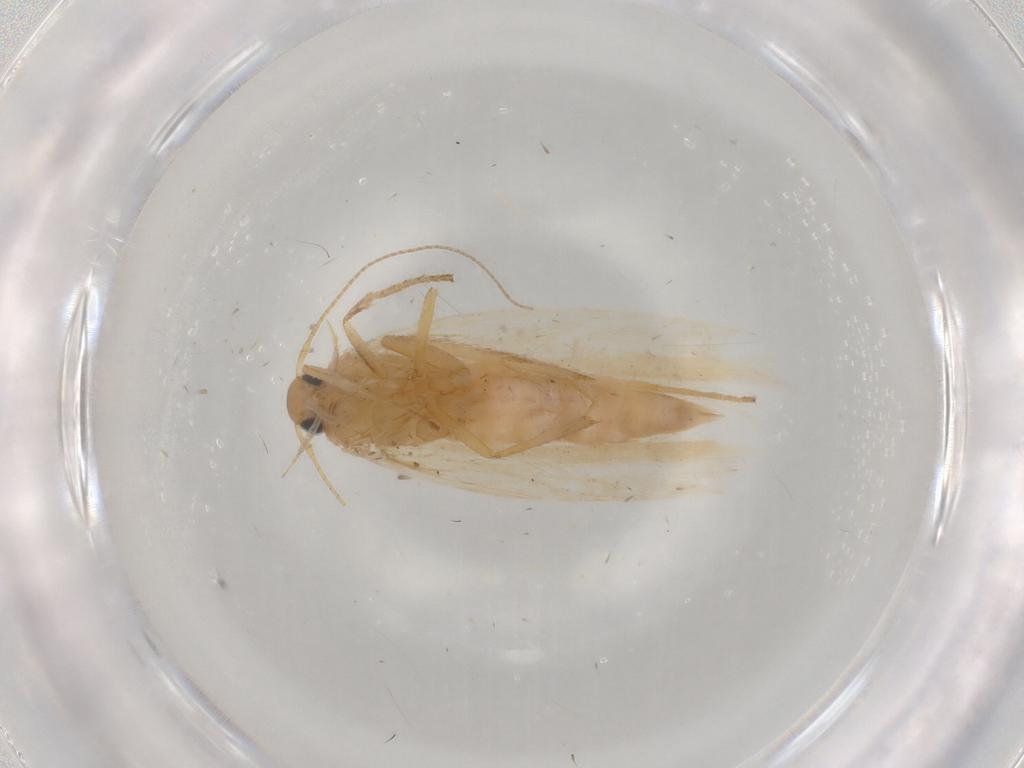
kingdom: Animalia
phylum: Arthropoda
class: Insecta
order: Lepidoptera
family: Gelechiidae
